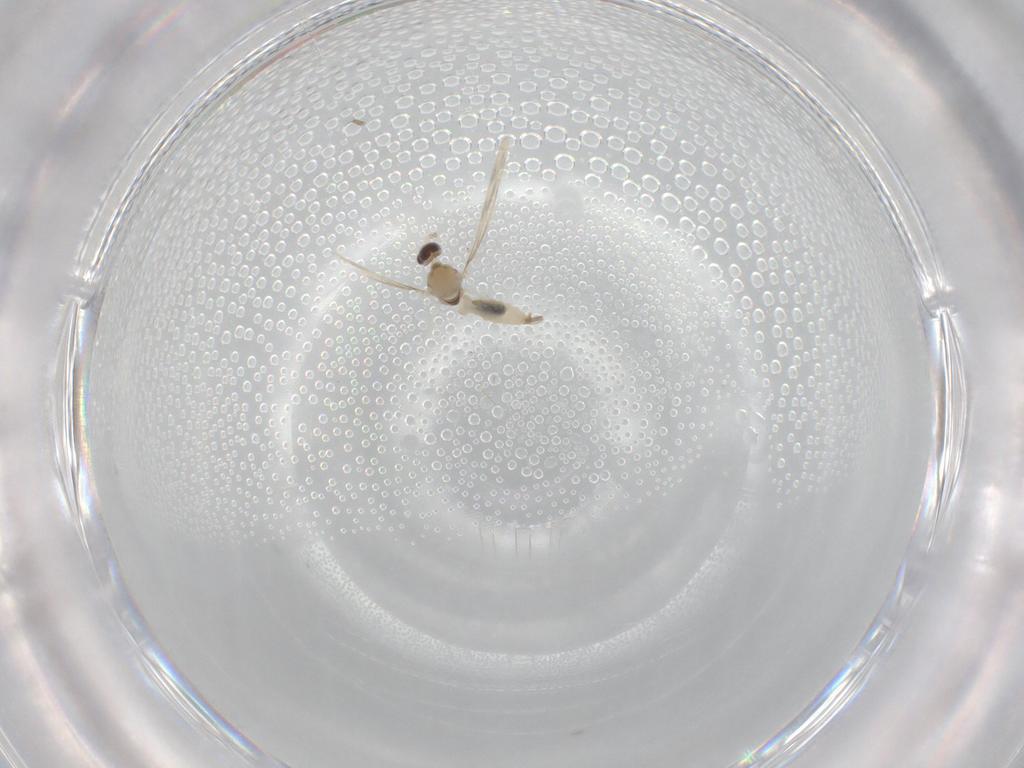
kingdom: Animalia
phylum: Arthropoda
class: Insecta
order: Diptera
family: Cecidomyiidae
